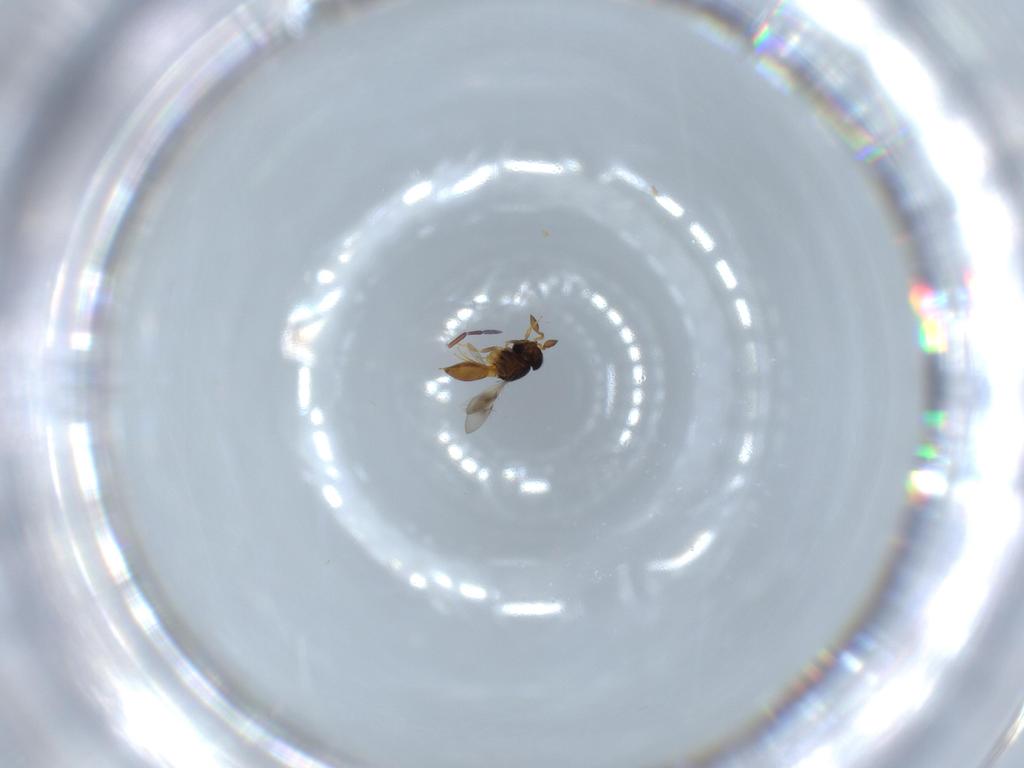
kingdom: Animalia
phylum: Arthropoda
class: Insecta
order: Hymenoptera
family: Scelionidae
